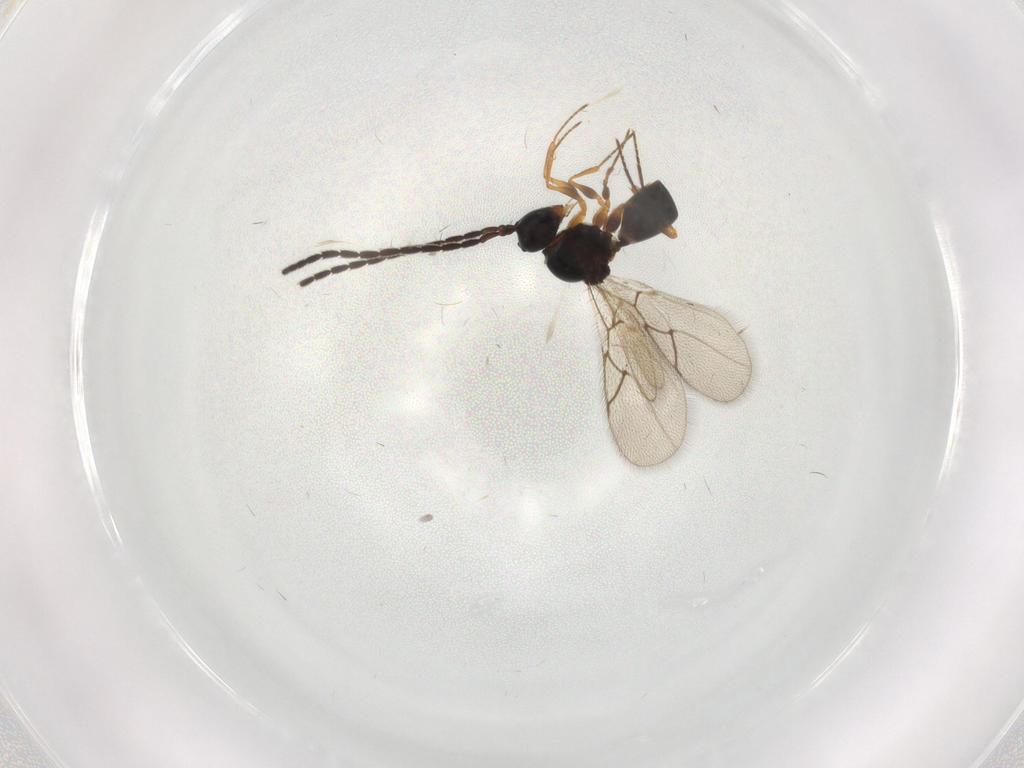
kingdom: Animalia
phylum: Arthropoda
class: Insecta
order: Hymenoptera
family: Figitidae
